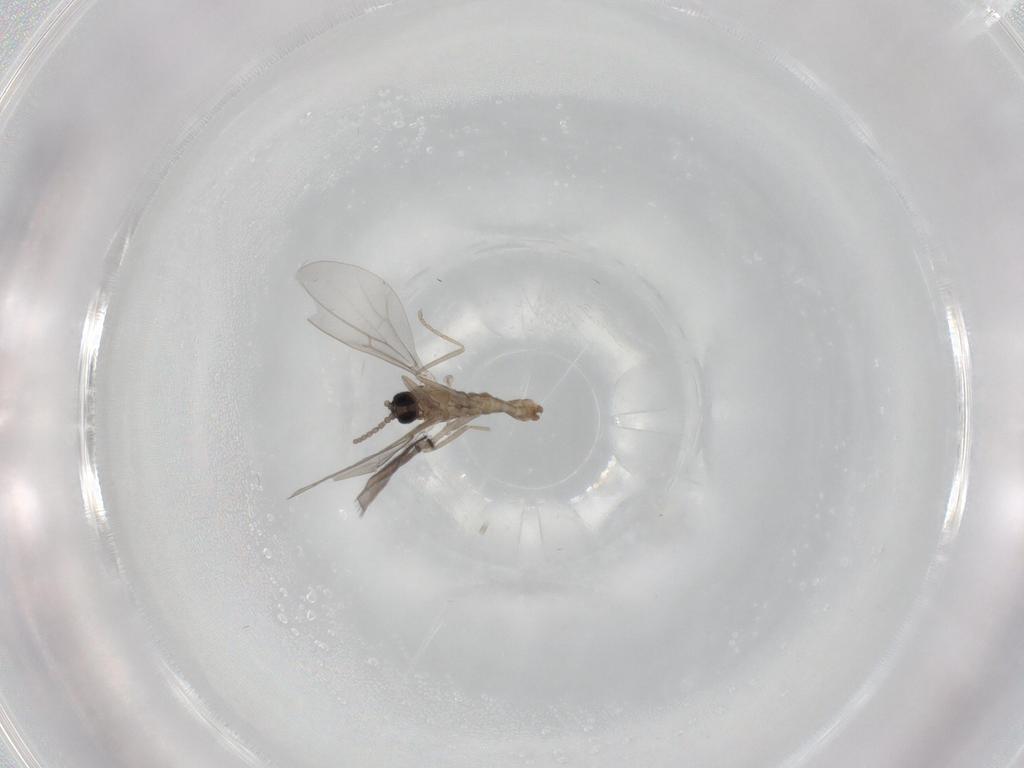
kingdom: Animalia
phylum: Arthropoda
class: Insecta
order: Diptera
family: Cecidomyiidae
